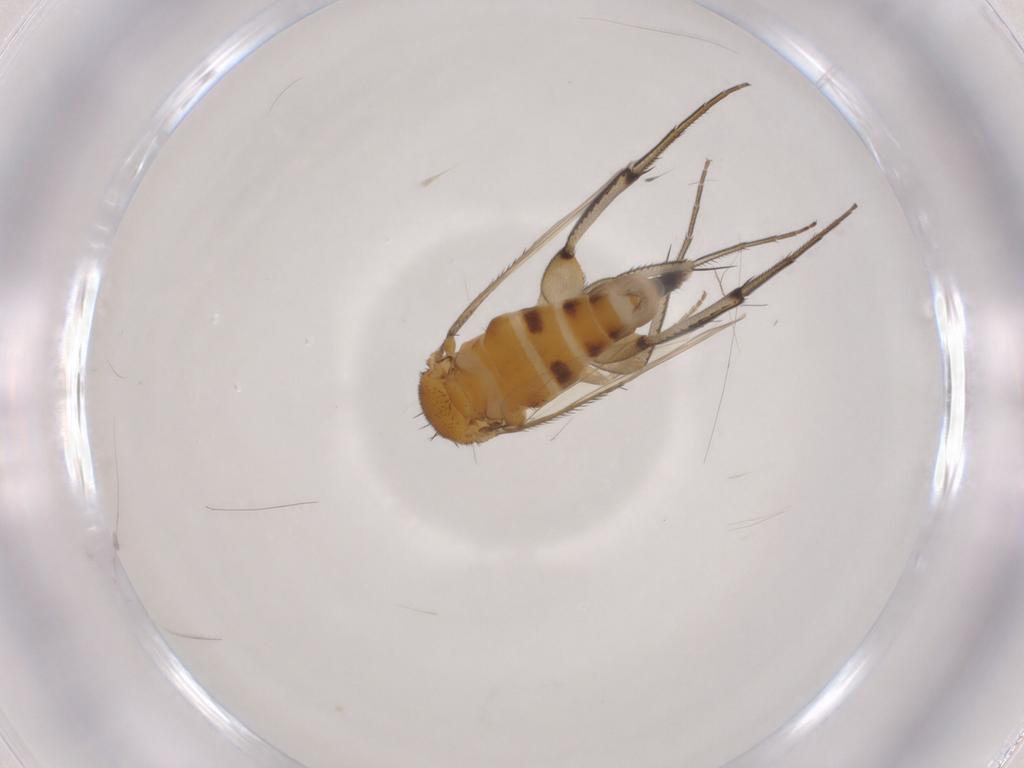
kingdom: Animalia
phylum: Arthropoda
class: Insecta
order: Diptera
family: Phoridae
